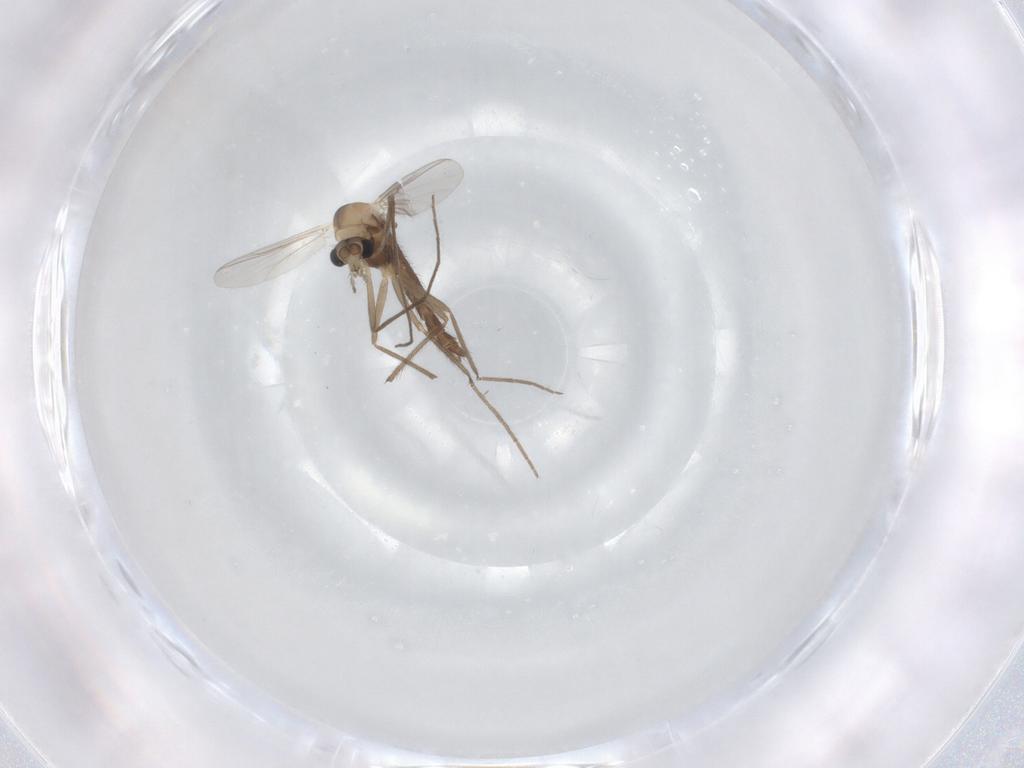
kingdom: Animalia
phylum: Arthropoda
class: Insecta
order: Diptera
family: Chironomidae
